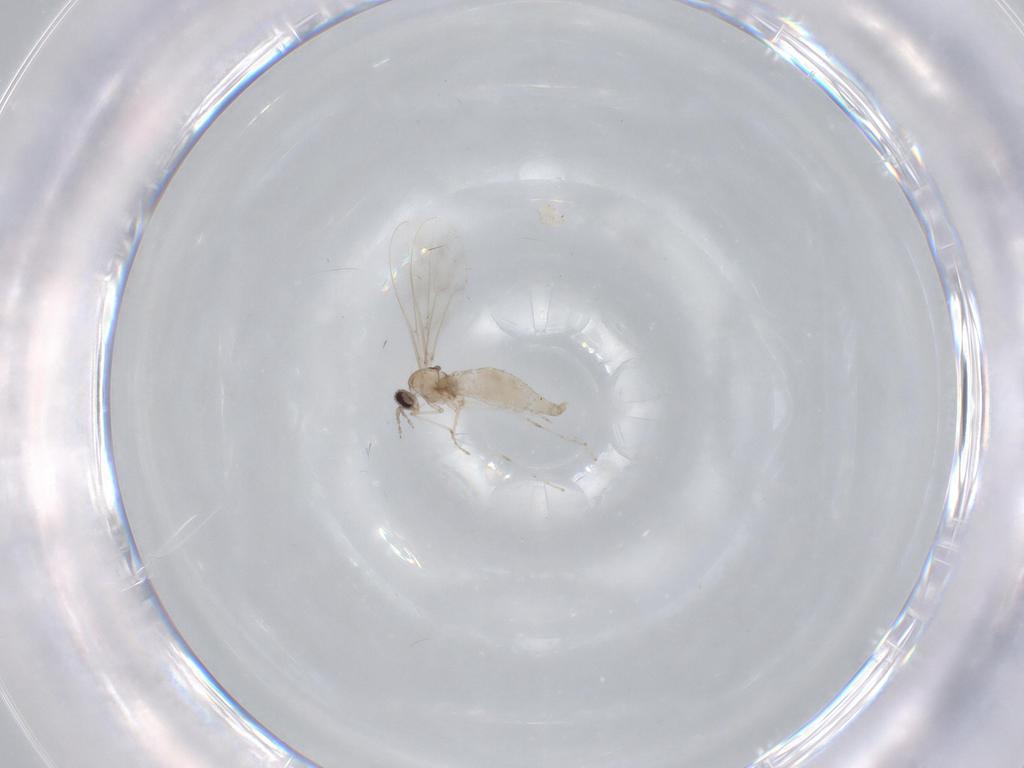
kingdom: Animalia
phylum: Arthropoda
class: Insecta
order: Diptera
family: Cecidomyiidae
